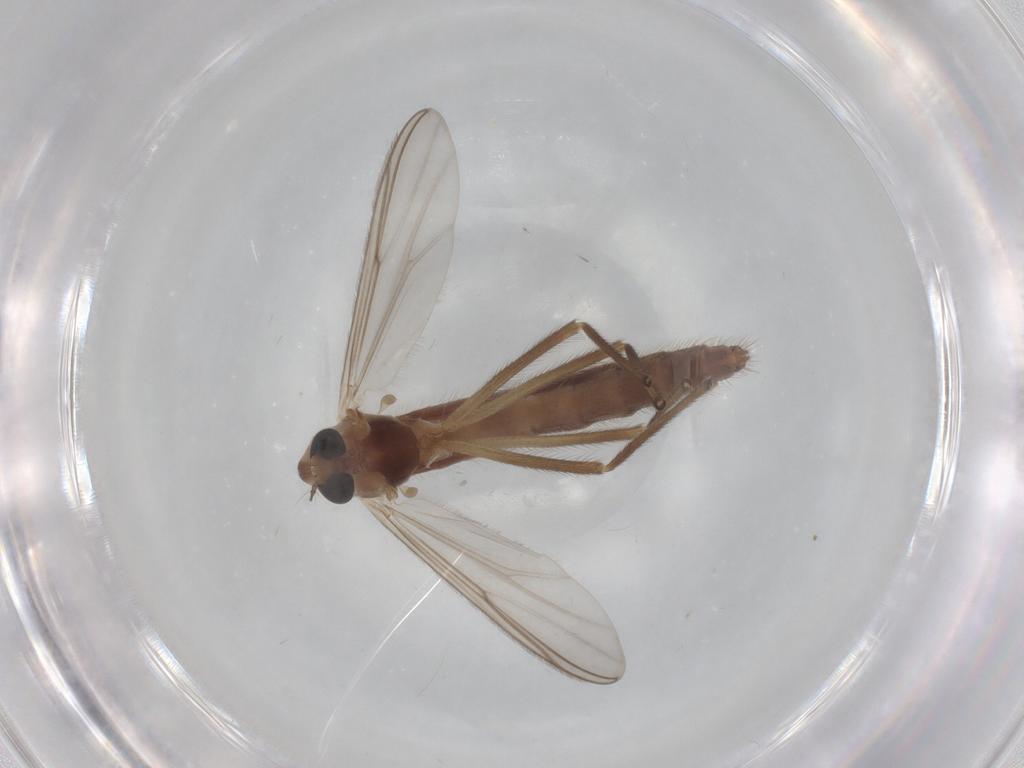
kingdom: Animalia
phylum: Arthropoda
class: Insecta
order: Diptera
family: Chironomidae
